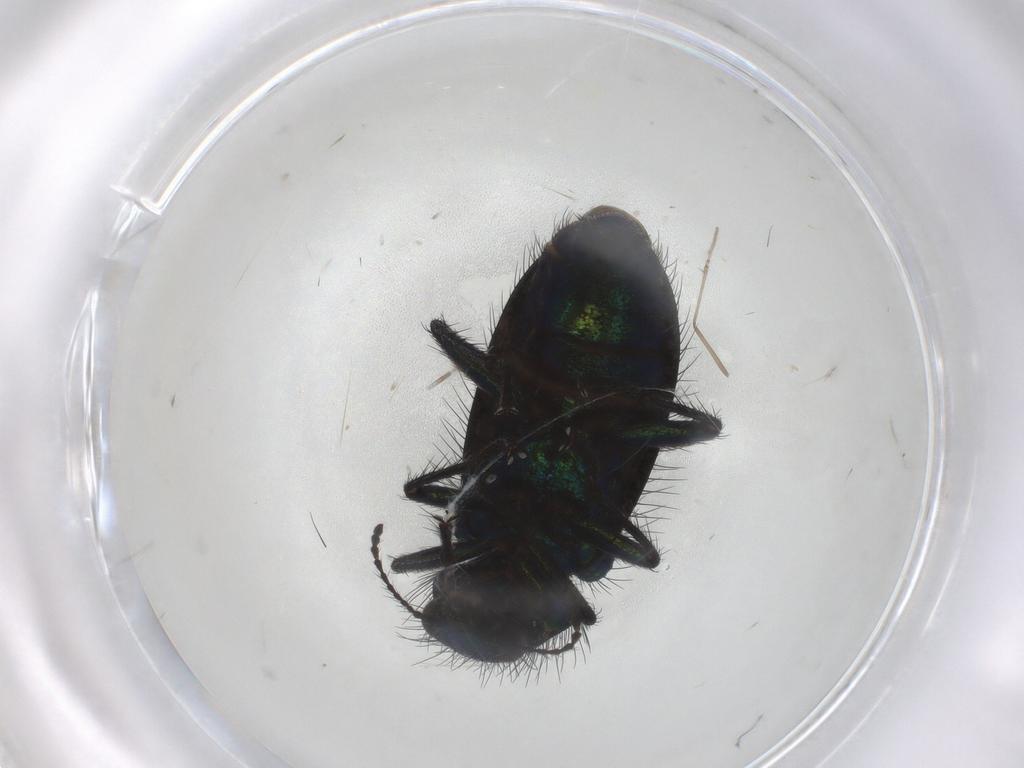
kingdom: Animalia
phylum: Arthropoda
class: Insecta
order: Coleoptera
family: Melyridae
